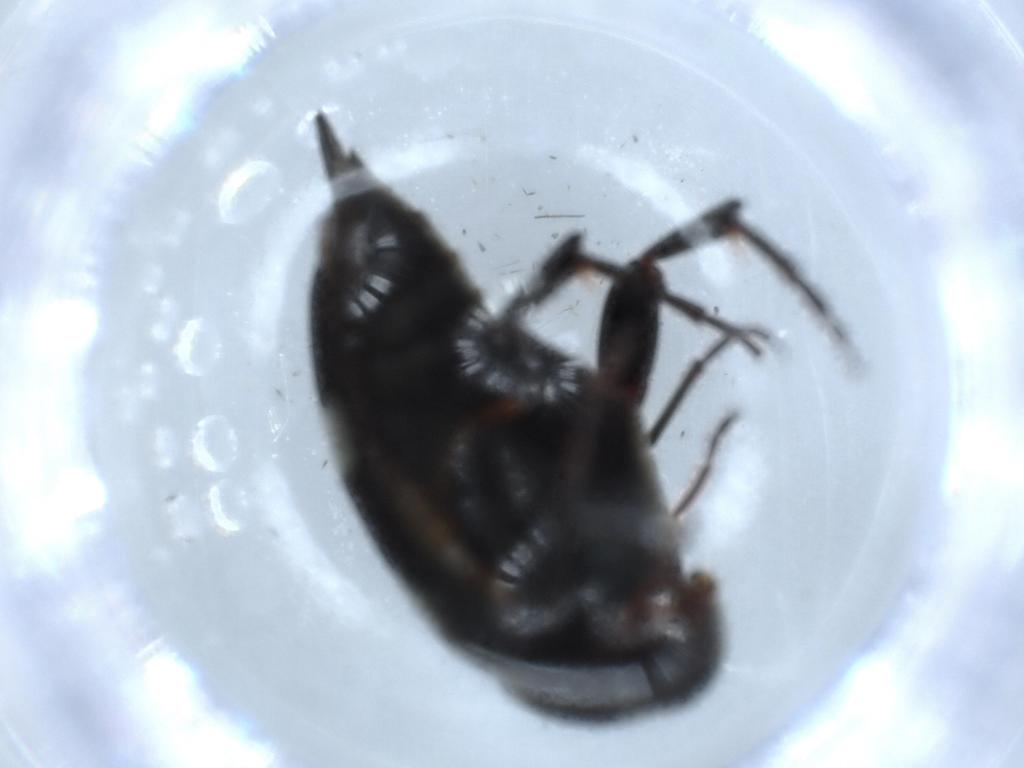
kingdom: Animalia
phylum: Arthropoda
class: Insecta
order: Coleoptera
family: Mordellidae
